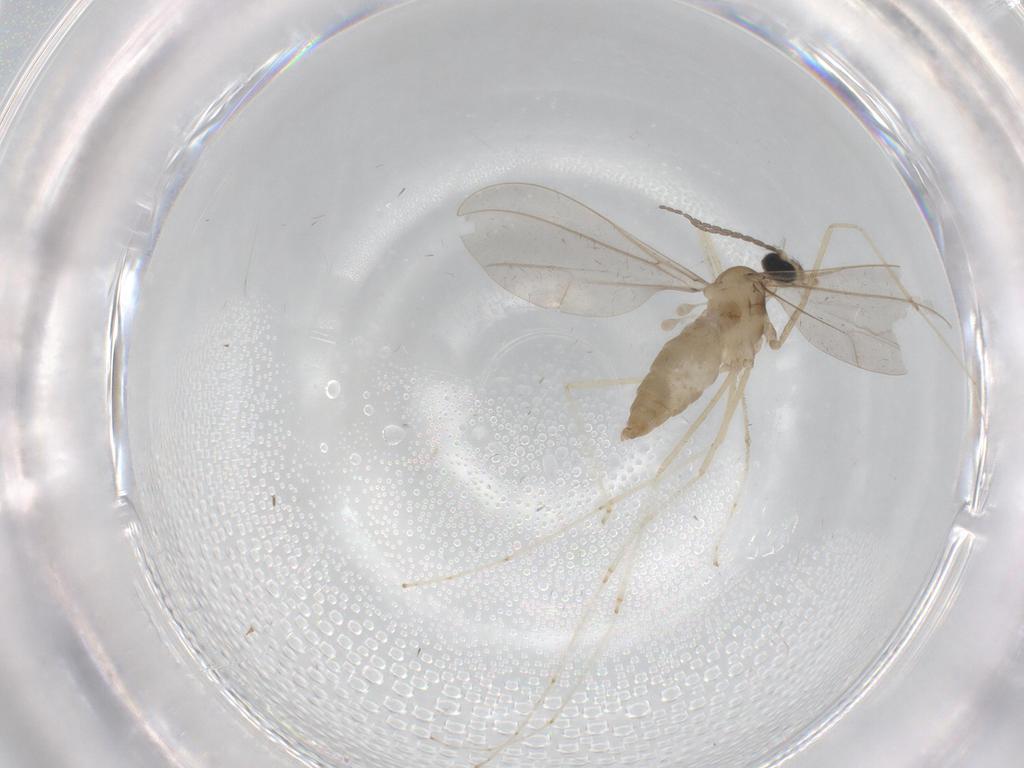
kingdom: Animalia
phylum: Arthropoda
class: Insecta
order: Diptera
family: Cecidomyiidae
